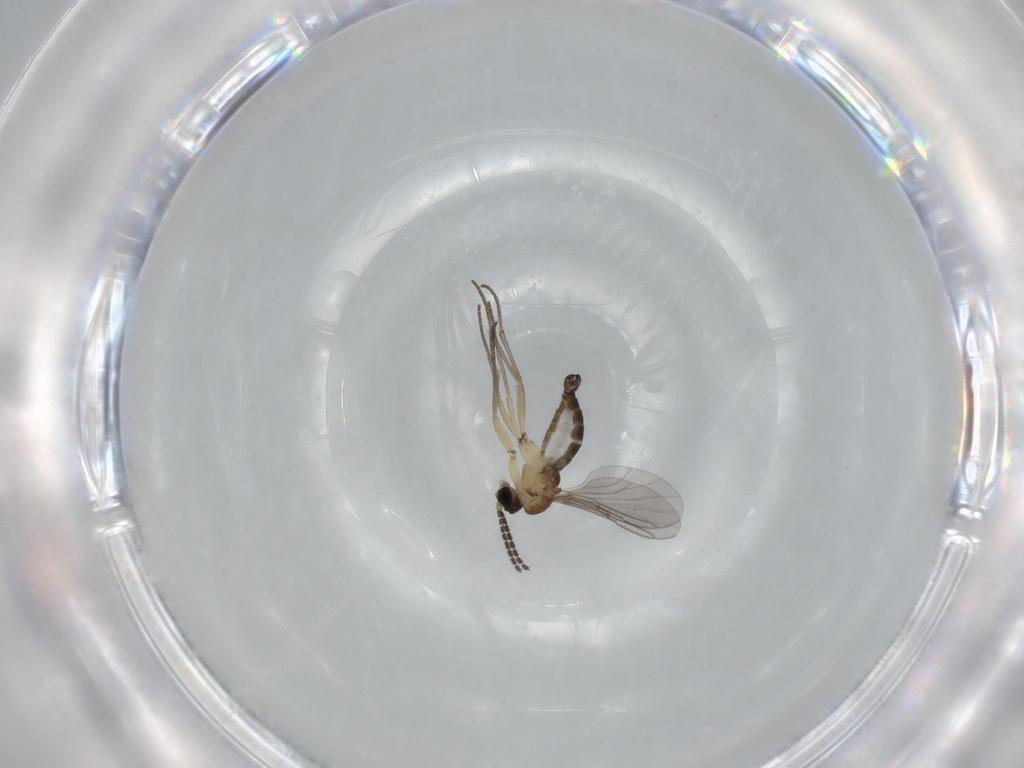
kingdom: Animalia
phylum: Arthropoda
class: Insecta
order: Diptera
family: Sciaridae
